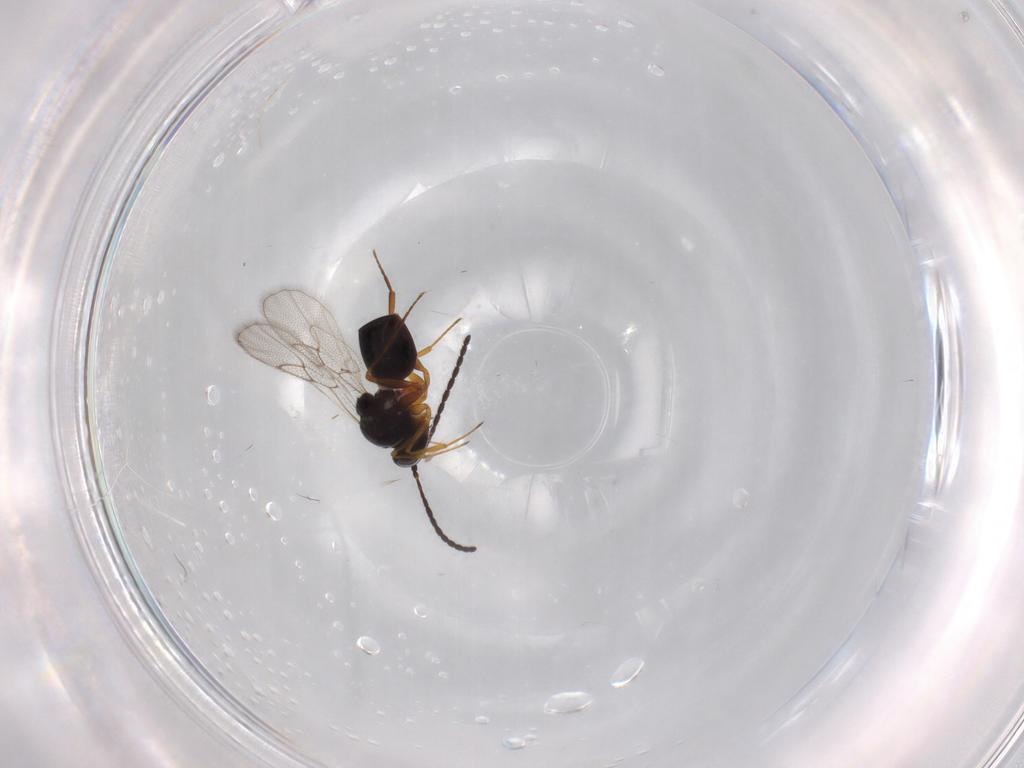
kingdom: Animalia
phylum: Arthropoda
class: Insecta
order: Hymenoptera
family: Figitidae
